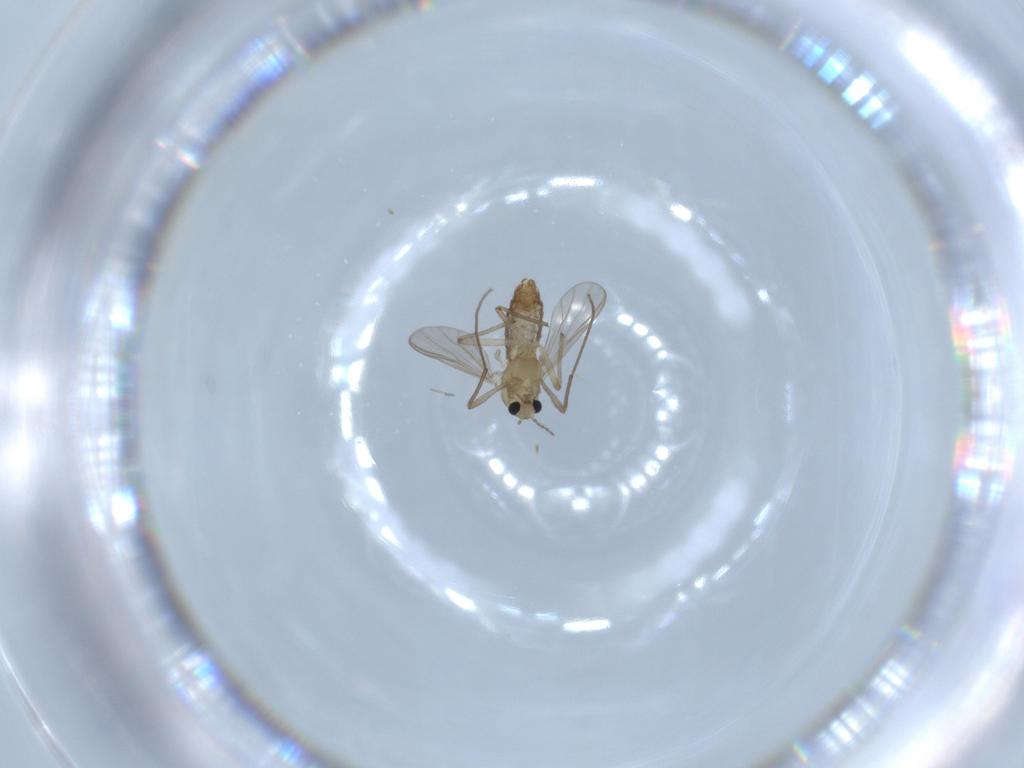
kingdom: Animalia
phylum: Arthropoda
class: Insecta
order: Diptera
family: Chironomidae
